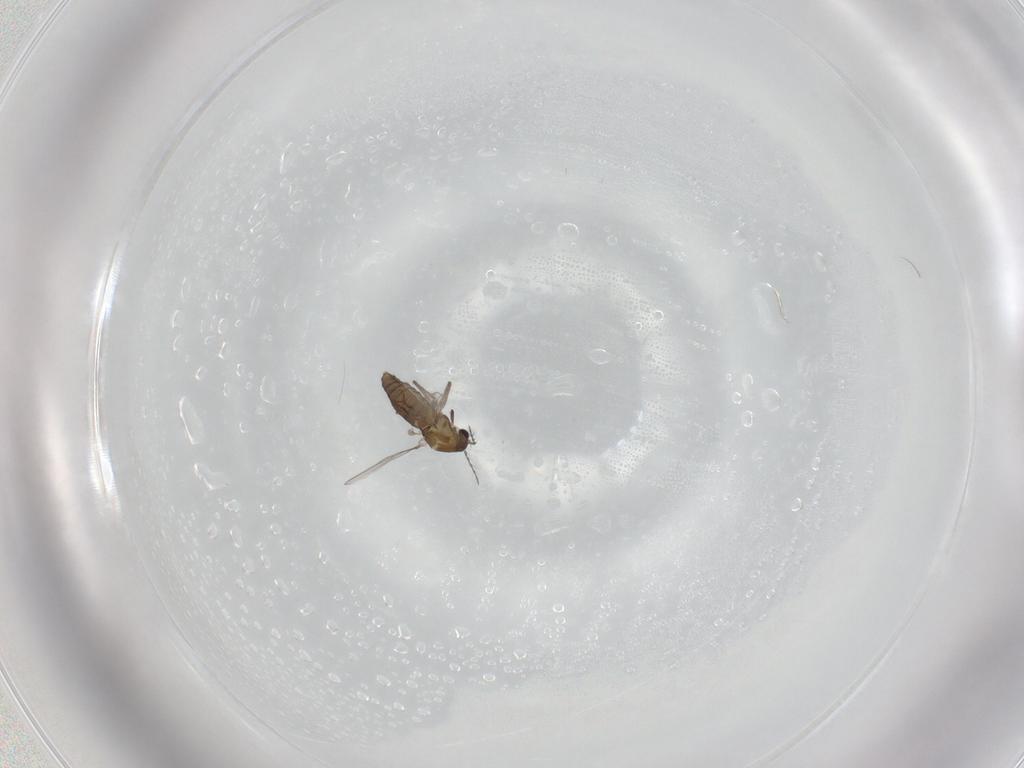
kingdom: Animalia
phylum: Arthropoda
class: Insecta
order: Diptera
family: Chironomidae
